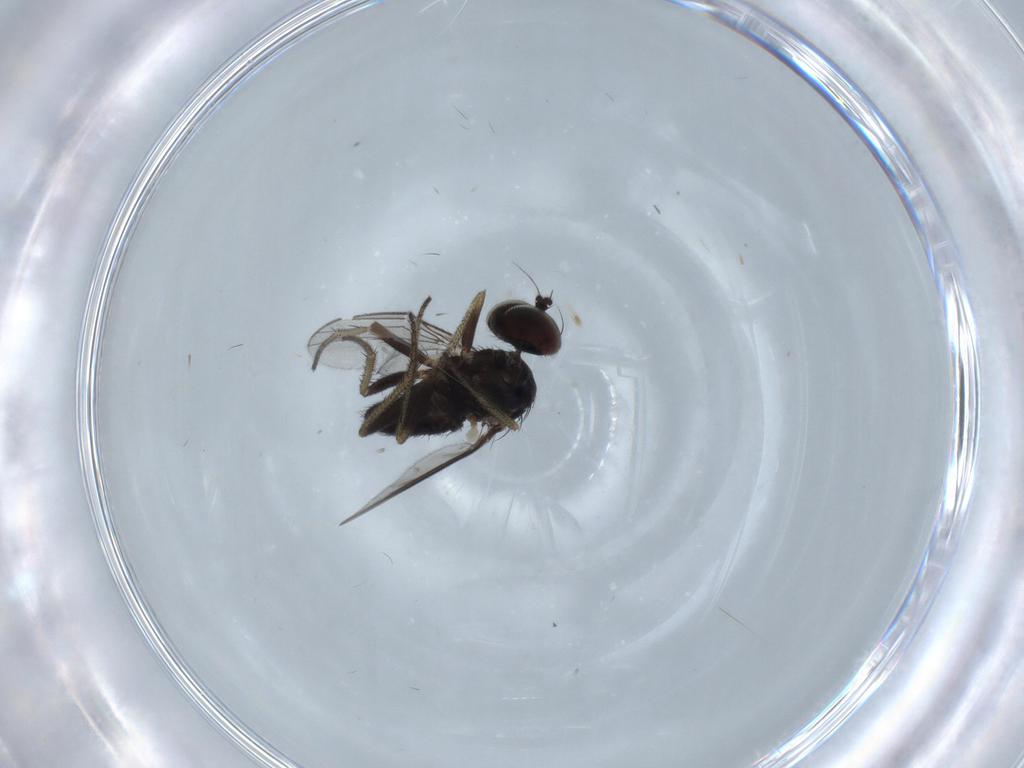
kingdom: Animalia
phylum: Arthropoda
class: Insecta
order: Diptera
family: Dolichopodidae
